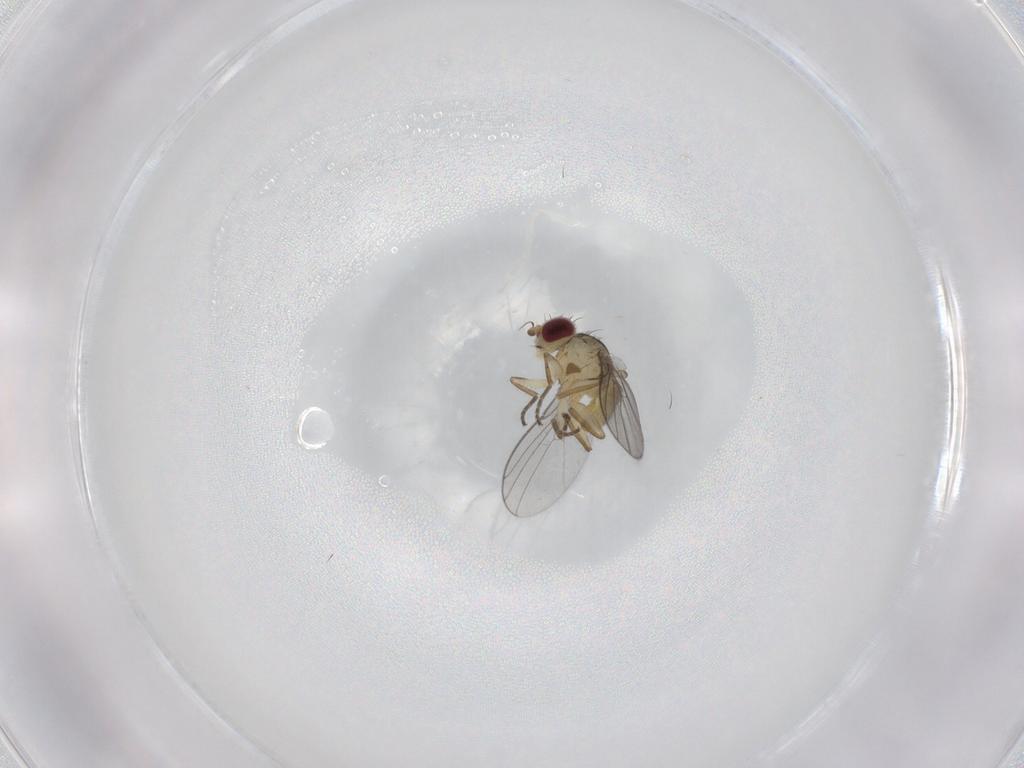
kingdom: Animalia
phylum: Arthropoda
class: Insecta
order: Diptera
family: Agromyzidae
